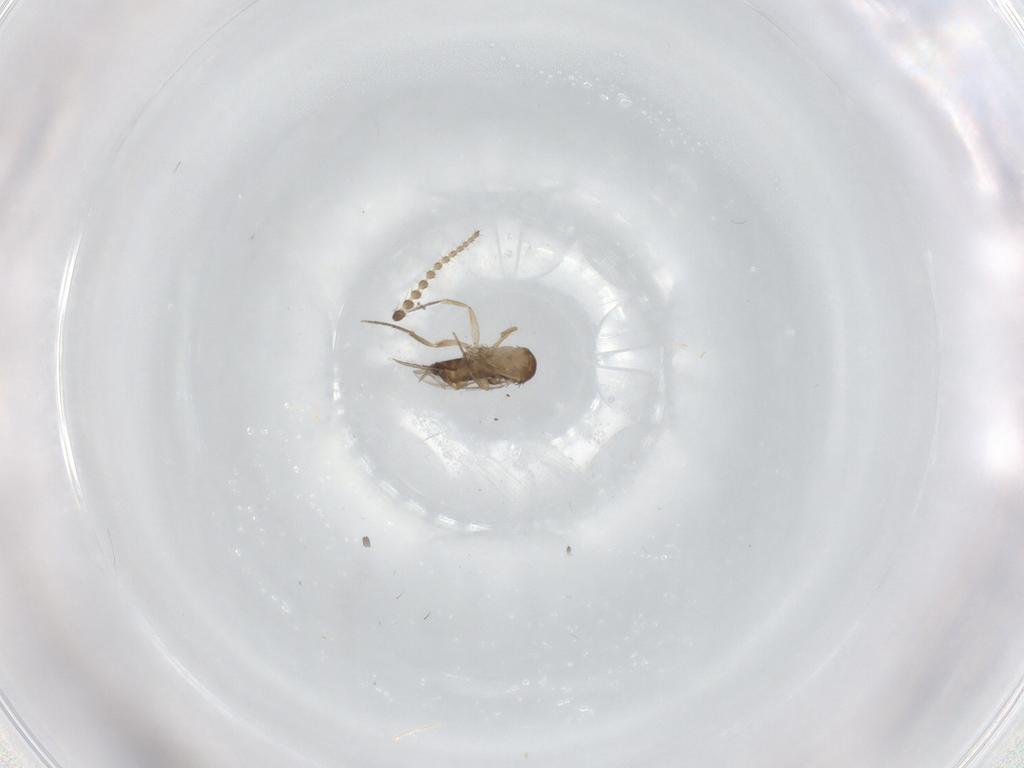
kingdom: Animalia
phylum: Arthropoda
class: Insecta
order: Diptera
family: Phoridae
